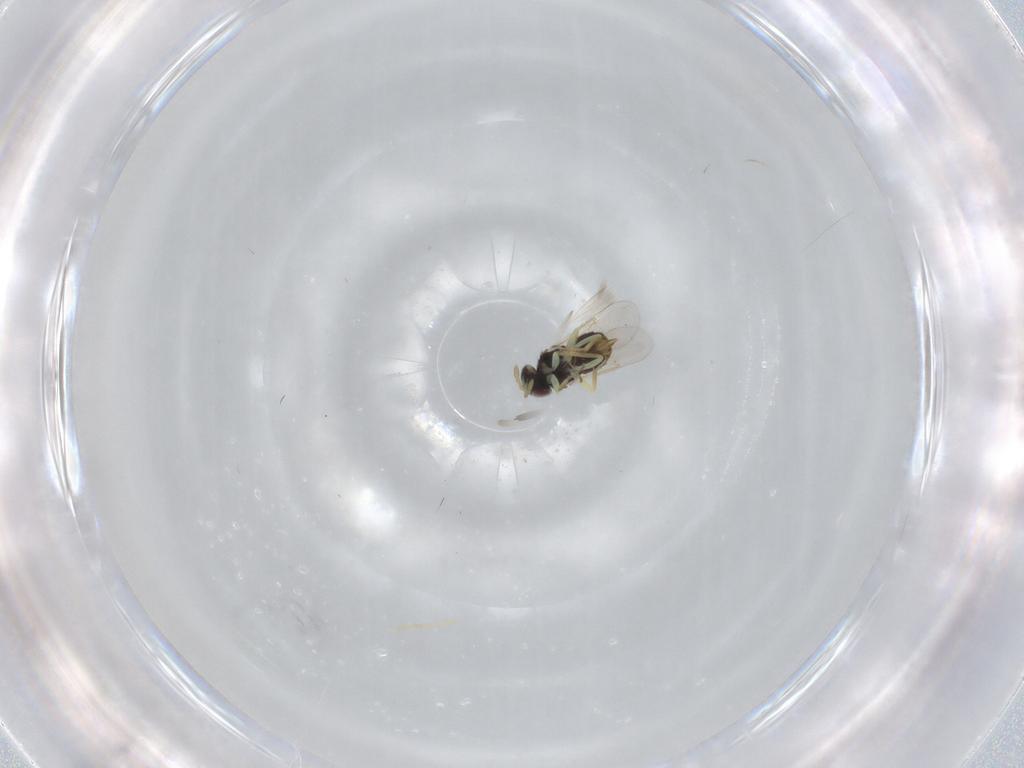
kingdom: Animalia
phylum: Arthropoda
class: Insecta
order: Hymenoptera
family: Aphelinidae
